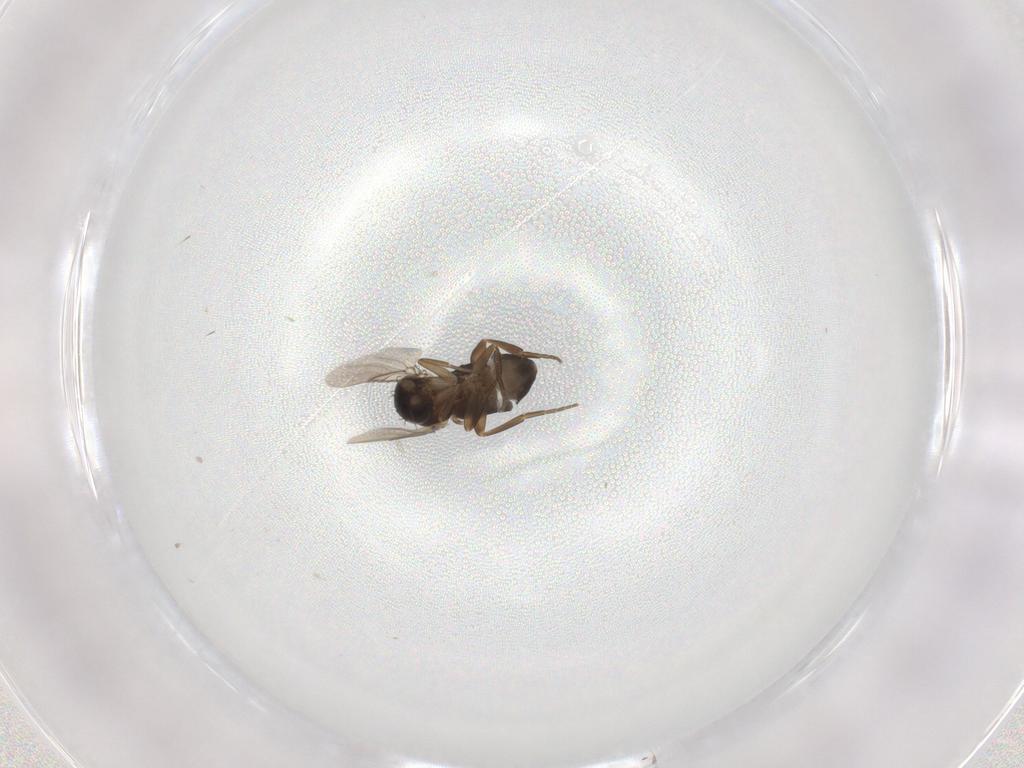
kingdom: Animalia
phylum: Arthropoda
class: Insecta
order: Diptera
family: Phoridae
